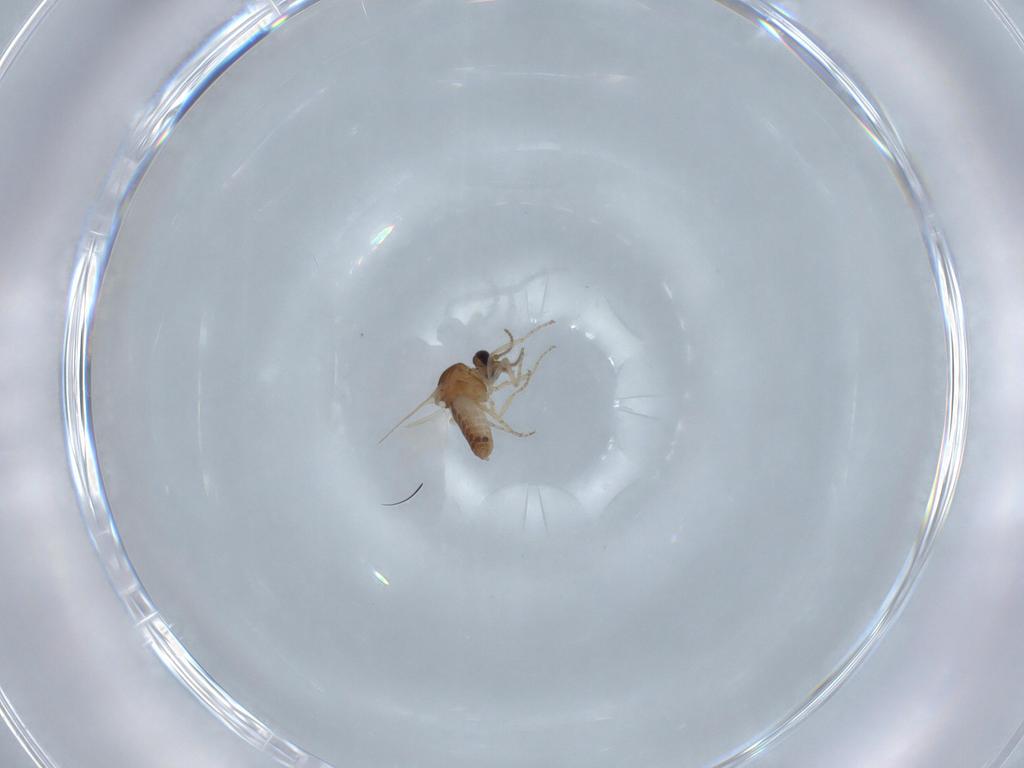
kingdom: Animalia
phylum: Arthropoda
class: Insecta
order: Diptera
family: Ceratopogonidae
